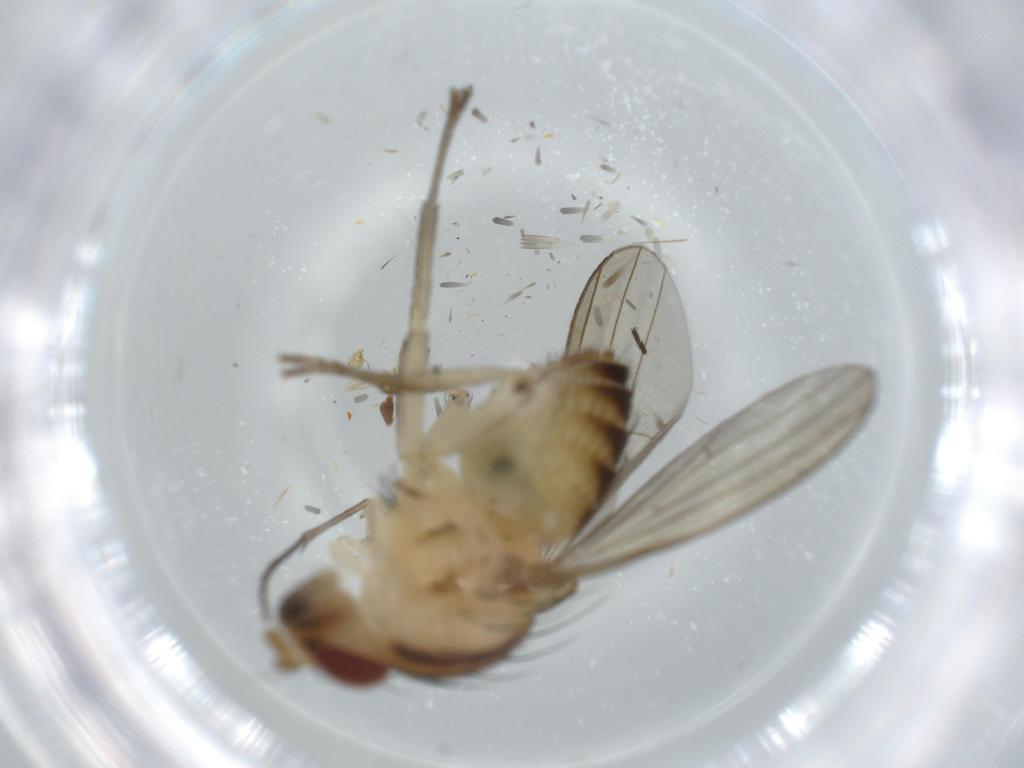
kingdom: Animalia
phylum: Arthropoda
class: Insecta
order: Diptera
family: Diadocidiidae
